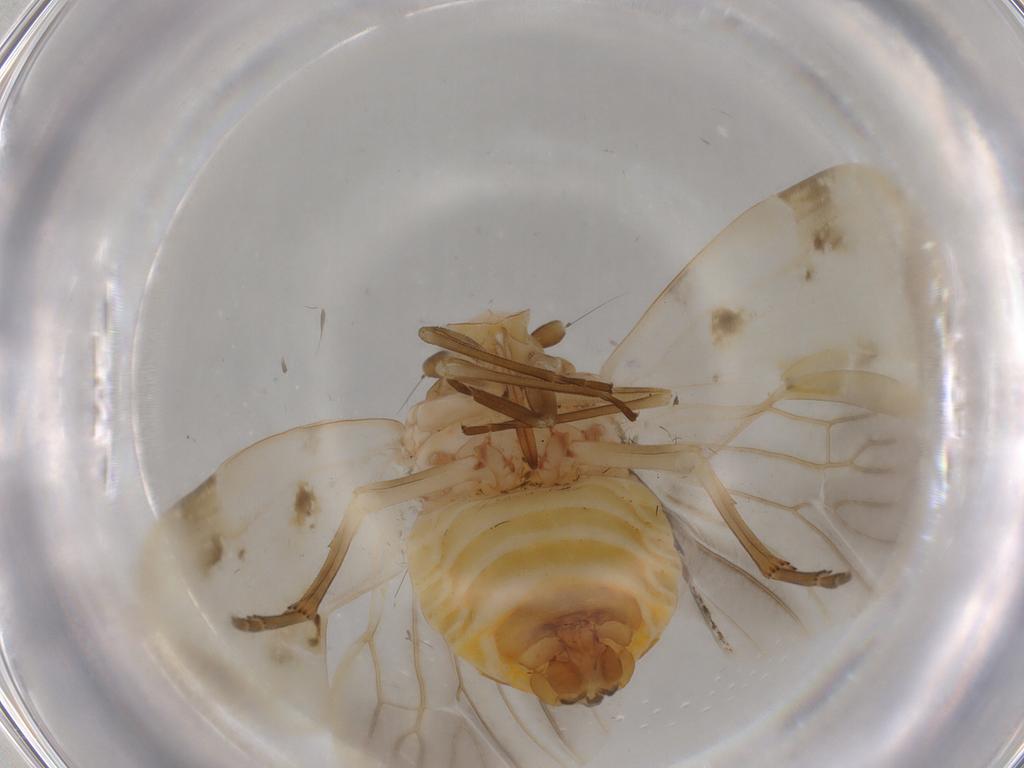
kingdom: Animalia
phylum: Arthropoda
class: Insecta
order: Hemiptera
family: Achilidae
